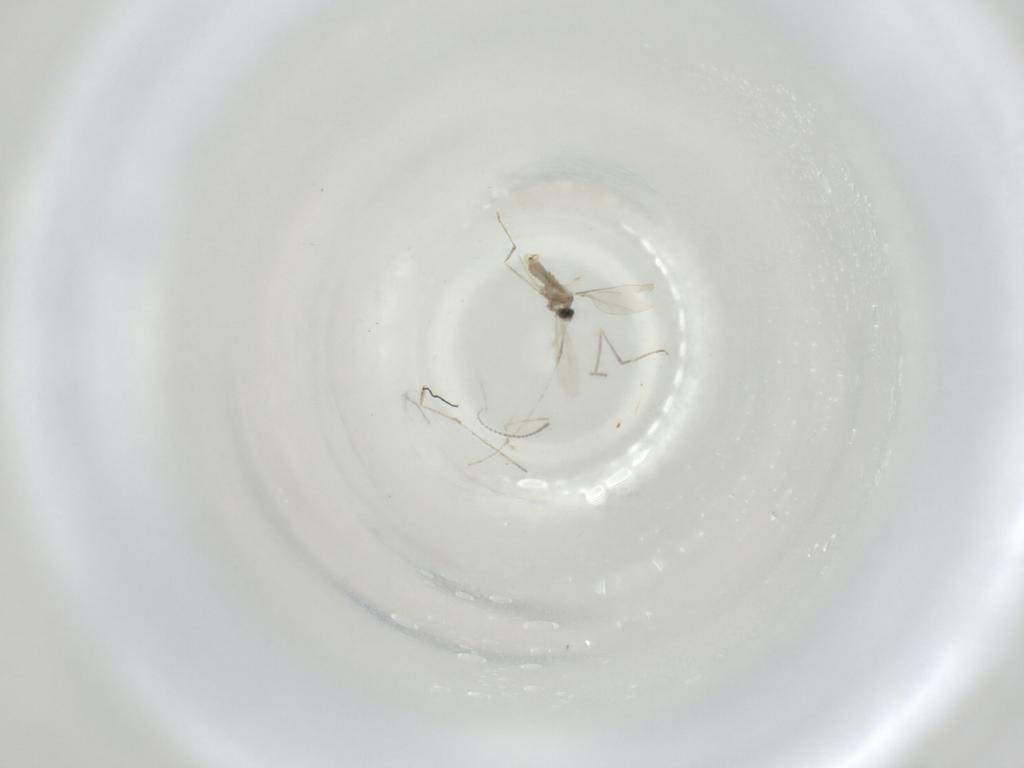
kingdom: Animalia
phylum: Arthropoda
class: Insecta
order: Diptera
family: Cecidomyiidae
